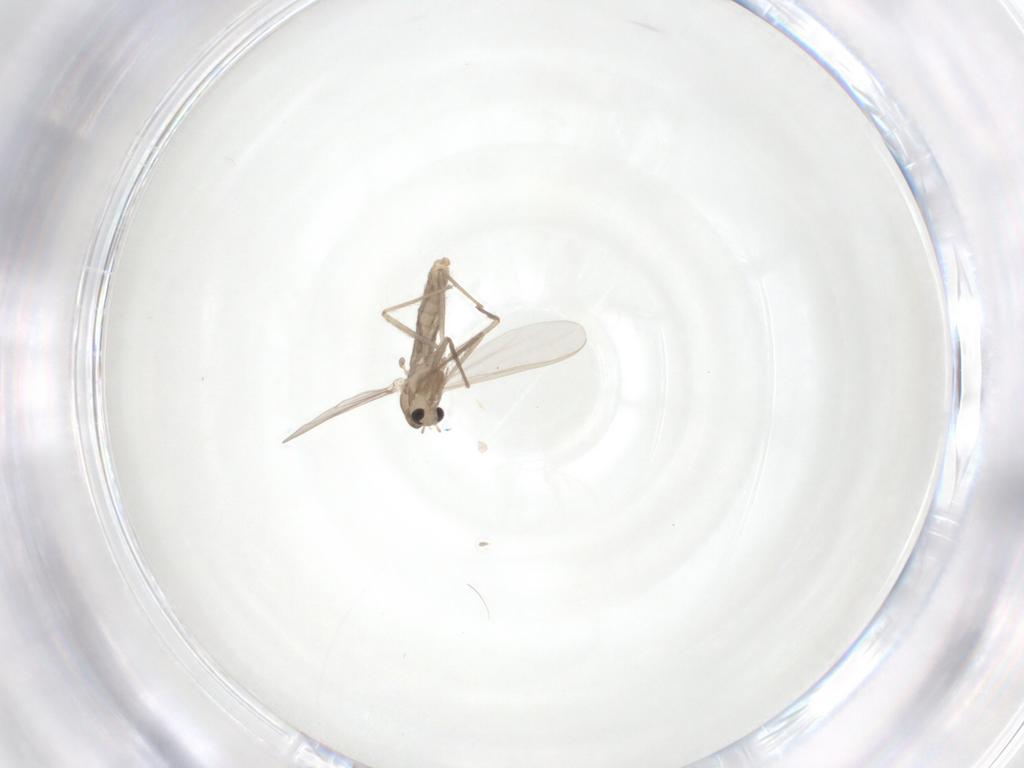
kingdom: Animalia
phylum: Arthropoda
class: Insecta
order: Diptera
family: Chironomidae
